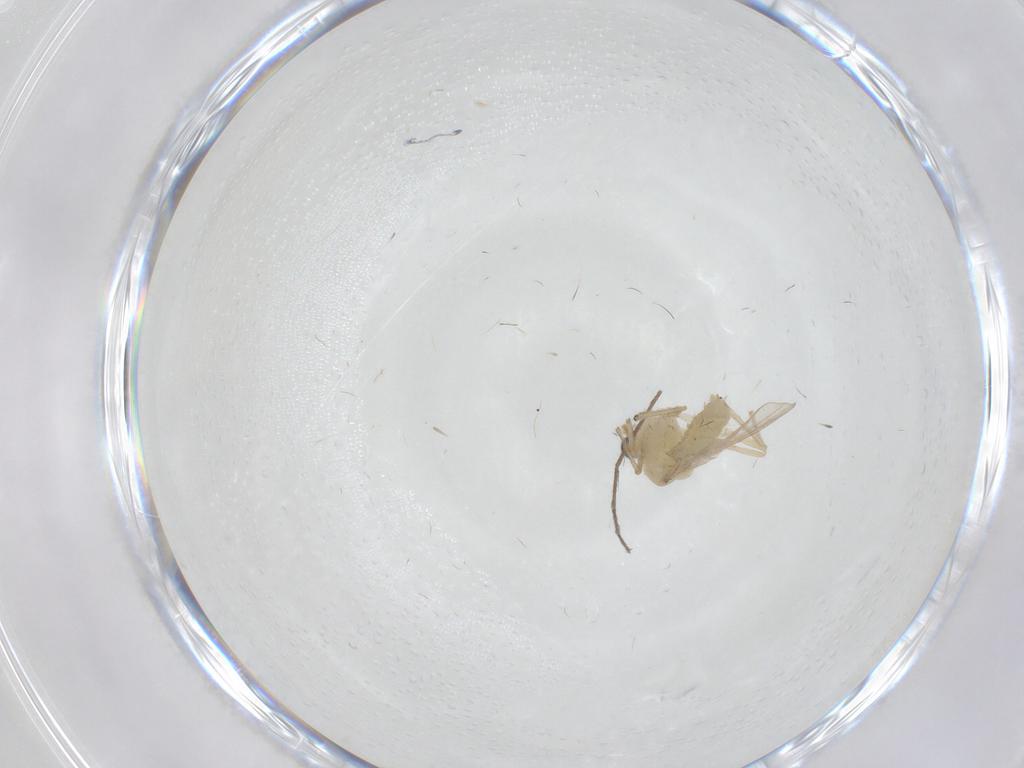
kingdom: Animalia
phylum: Arthropoda
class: Insecta
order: Diptera
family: Chironomidae
